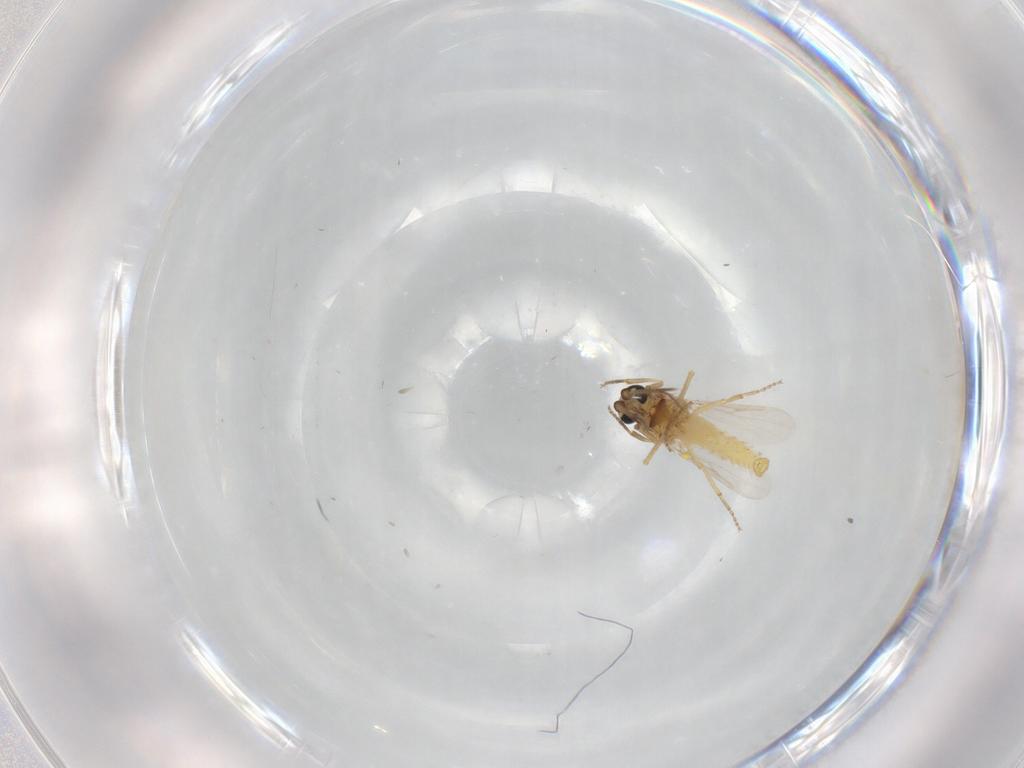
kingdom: Animalia
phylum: Arthropoda
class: Insecta
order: Diptera
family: Ceratopogonidae
